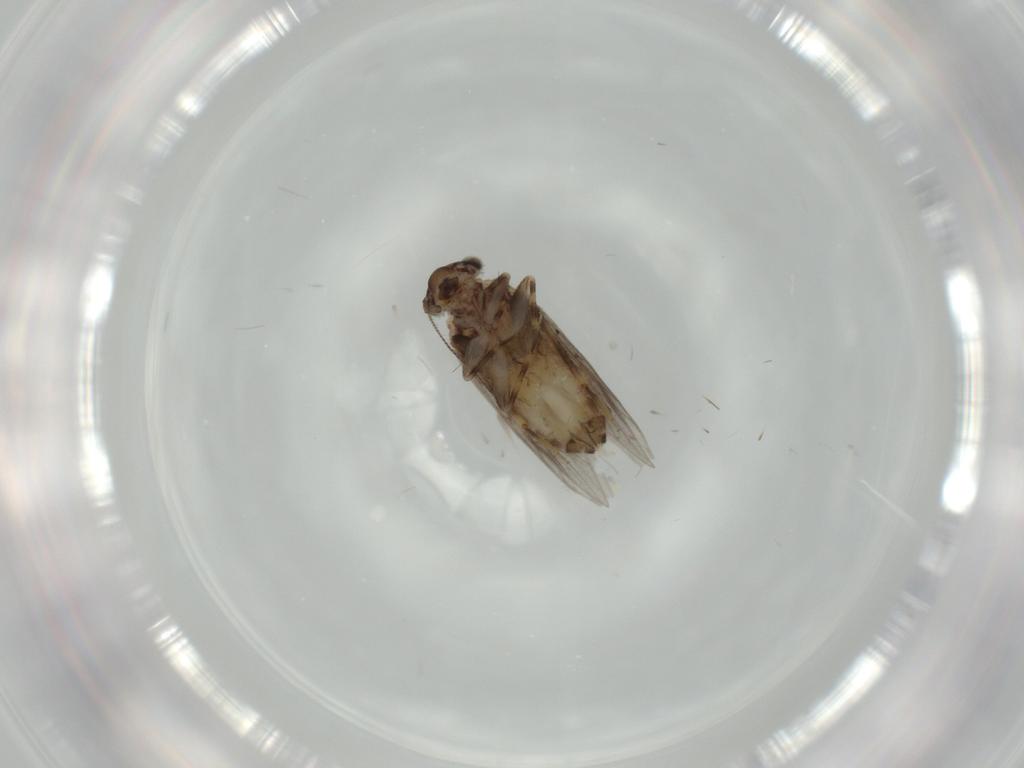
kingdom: Animalia
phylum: Arthropoda
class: Insecta
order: Psocodea
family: Lepidopsocidae
